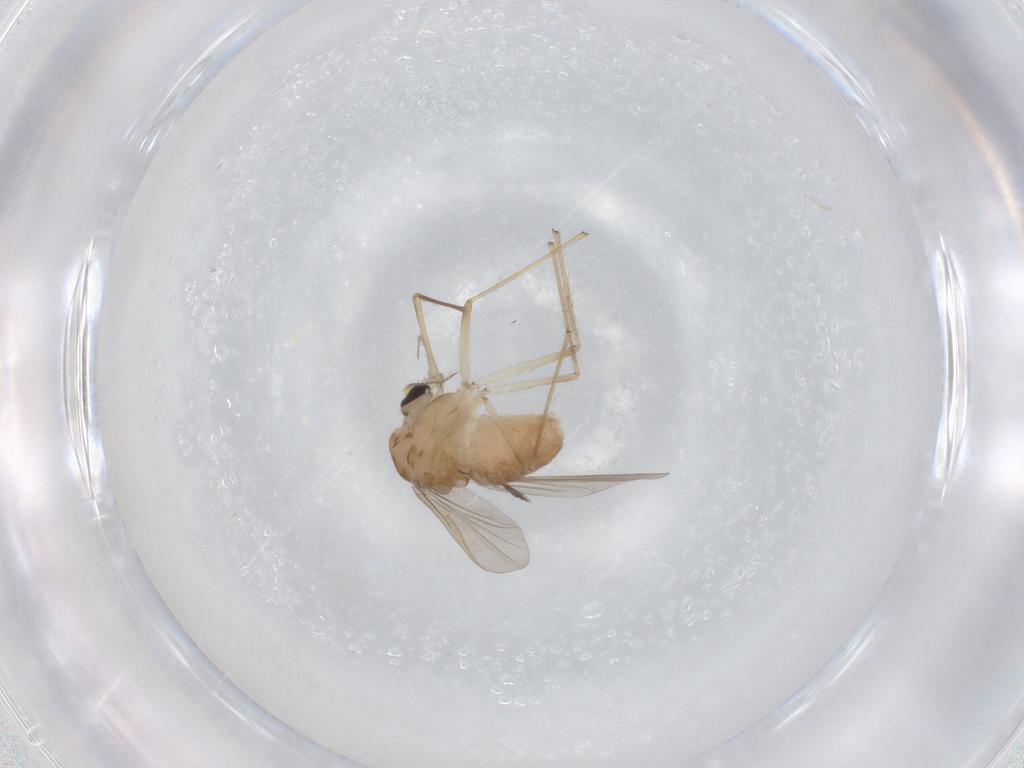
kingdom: Animalia
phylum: Arthropoda
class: Insecta
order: Diptera
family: Chironomidae
